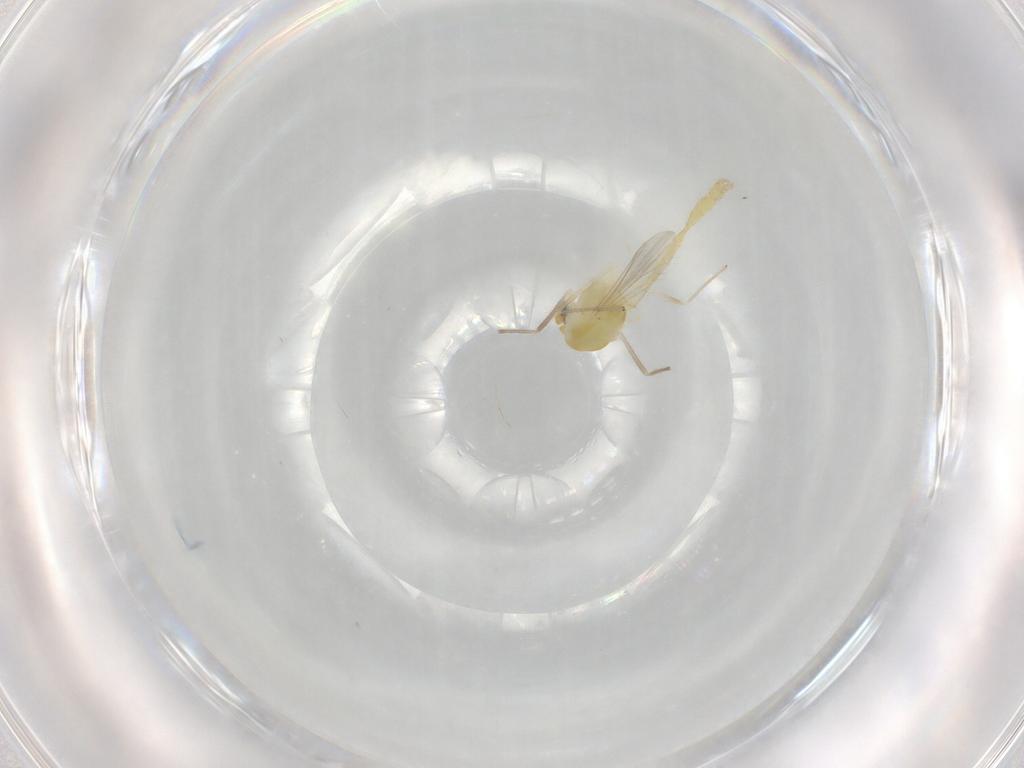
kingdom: Animalia
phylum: Arthropoda
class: Insecta
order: Diptera
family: Chironomidae
